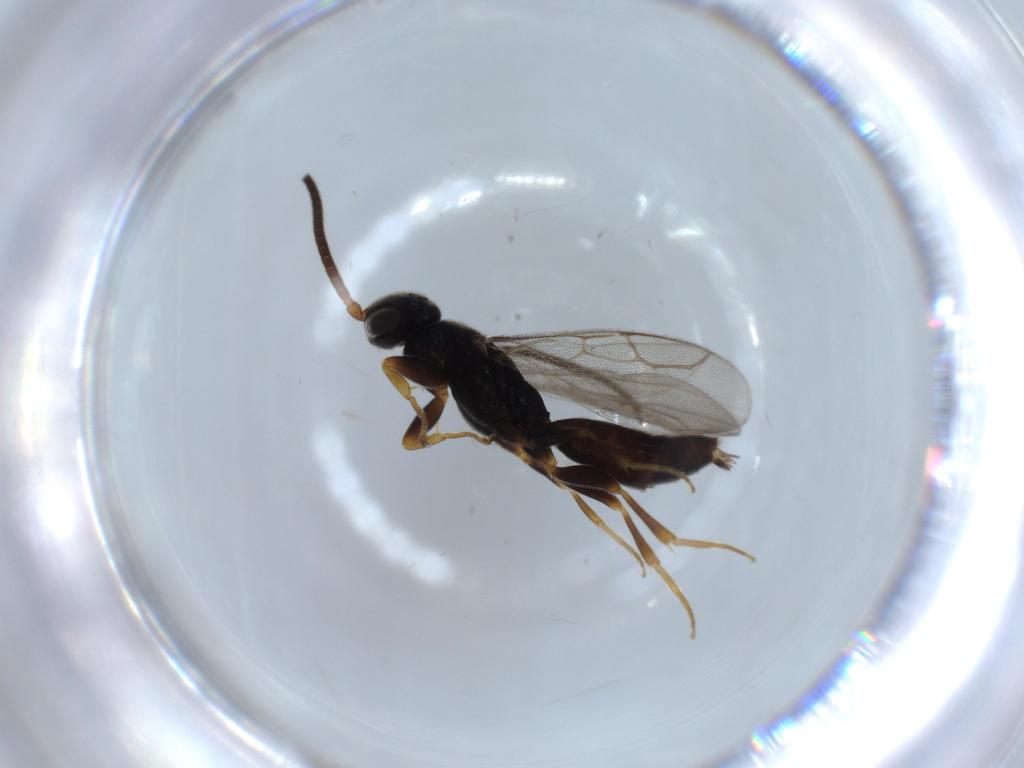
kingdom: Animalia
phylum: Arthropoda
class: Insecta
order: Hymenoptera
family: Sclerogibbidae
